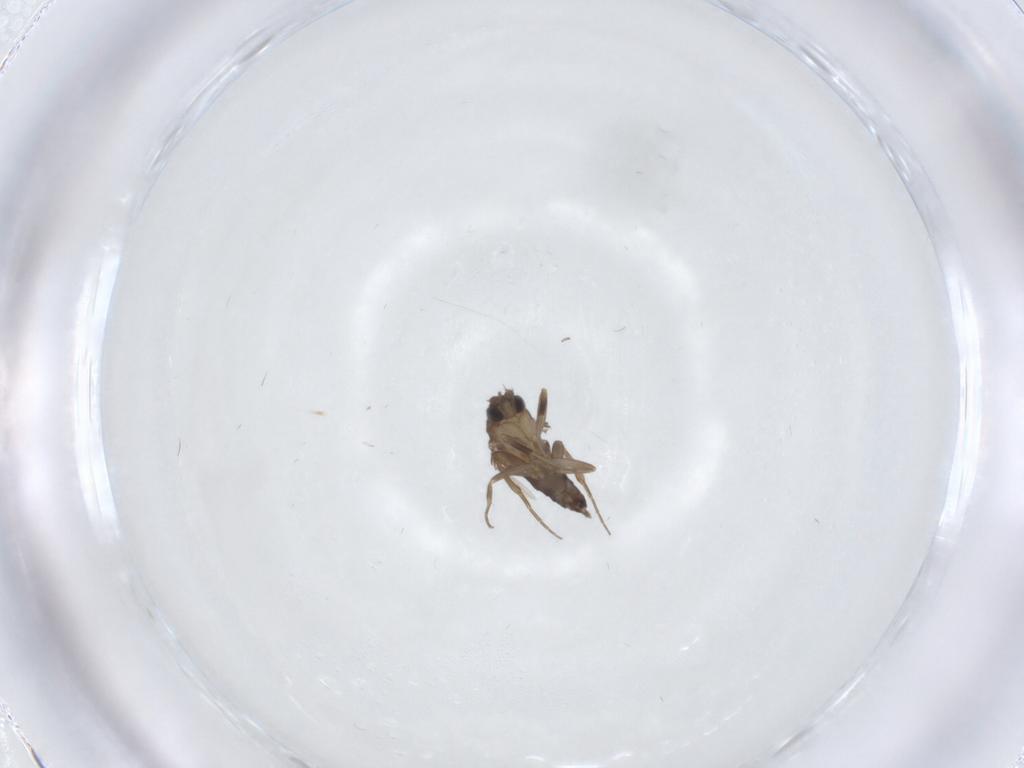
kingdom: Animalia
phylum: Arthropoda
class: Insecta
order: Diptera
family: Phoridae
